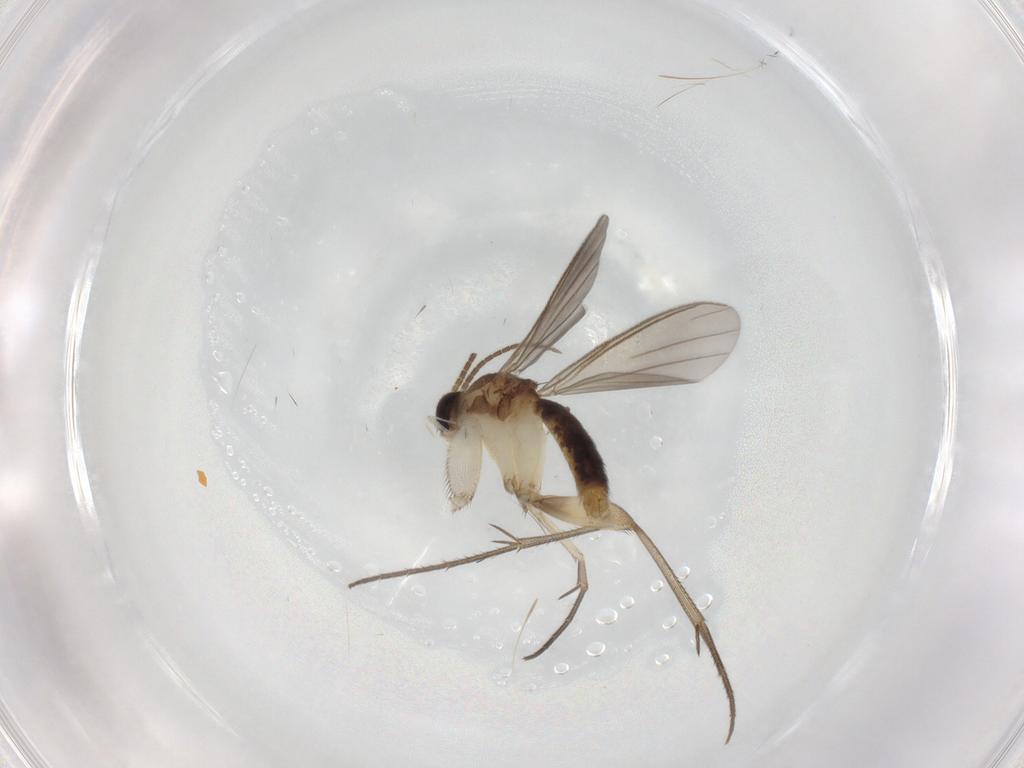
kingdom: Animalia
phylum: Arthropoda
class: Insecta
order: Diptera
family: Mycetophilidae
